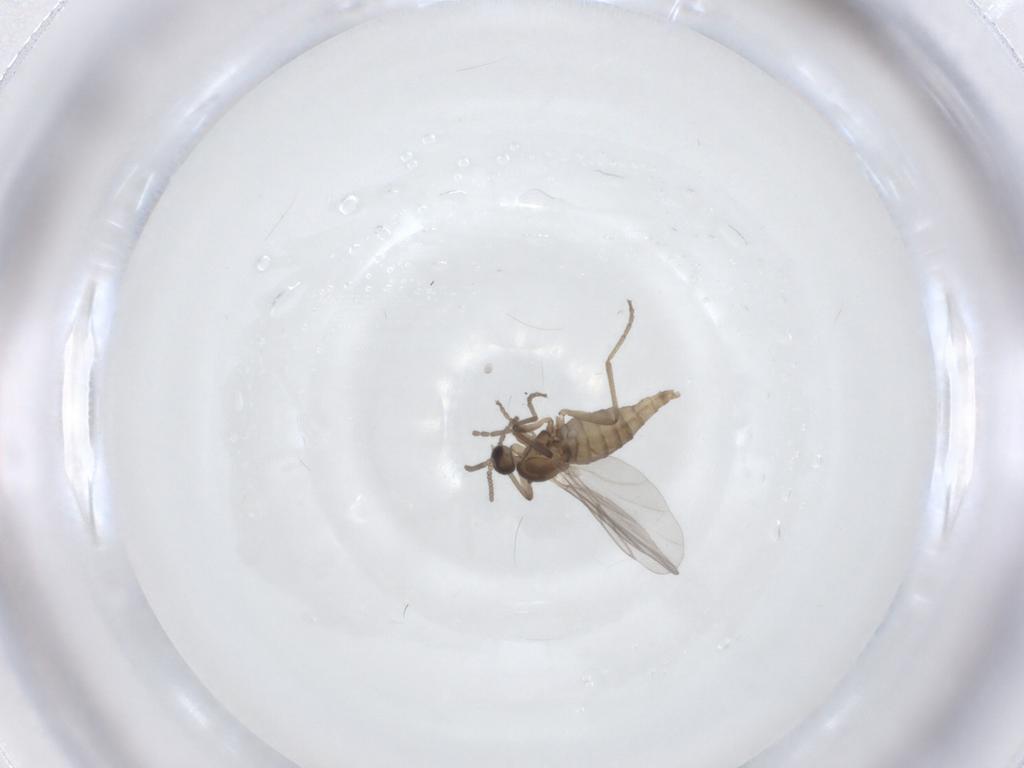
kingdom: Animalia
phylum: Arthropoda
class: Insecta
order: Diptera
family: Cecidomyiidae
